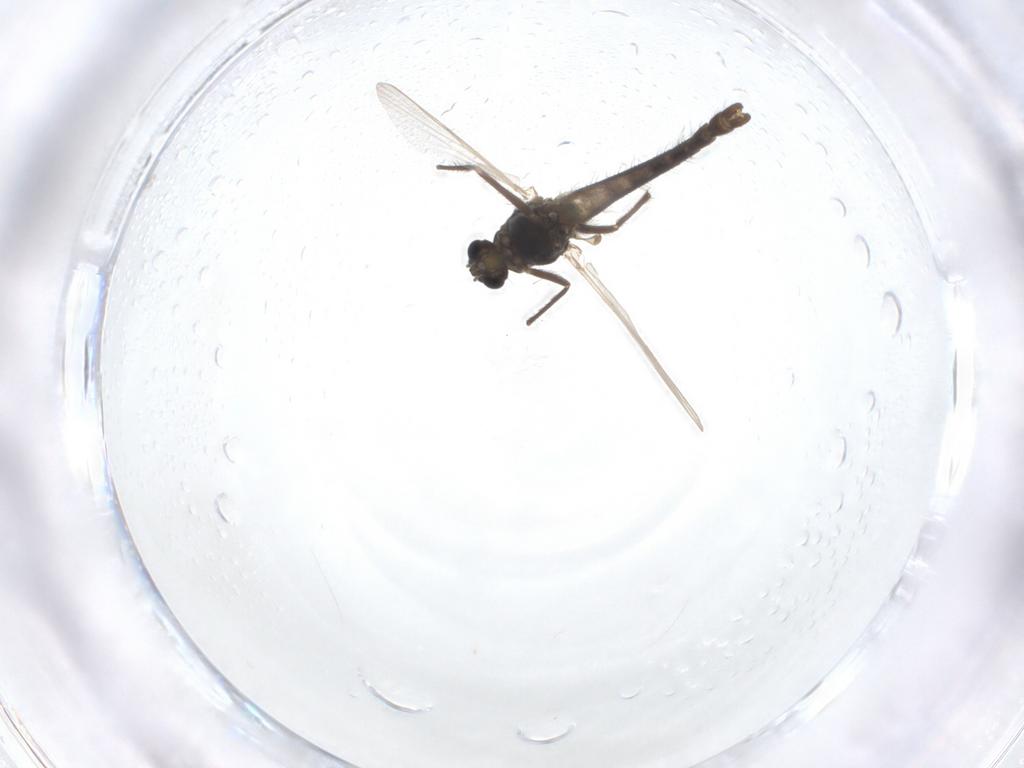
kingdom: Animalia
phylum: Arthropoda
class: Insecta
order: Diptera
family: Chironomidae
